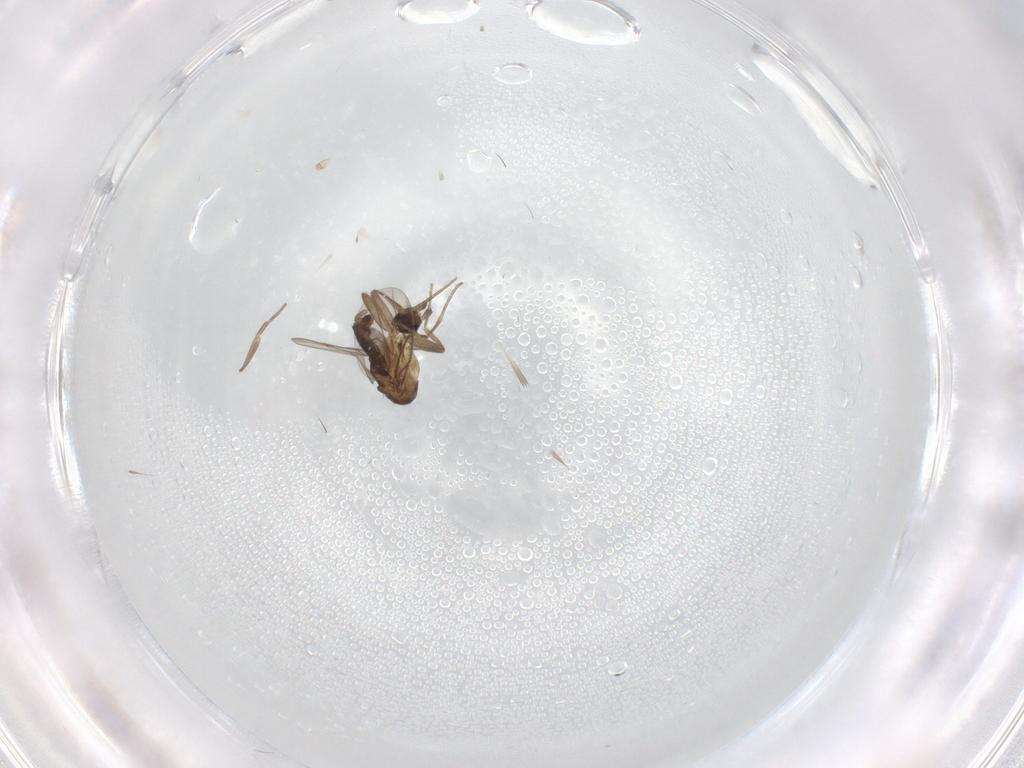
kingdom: Animalia
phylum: Arthropoda
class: Insecta
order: Diptera
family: Phoridae
